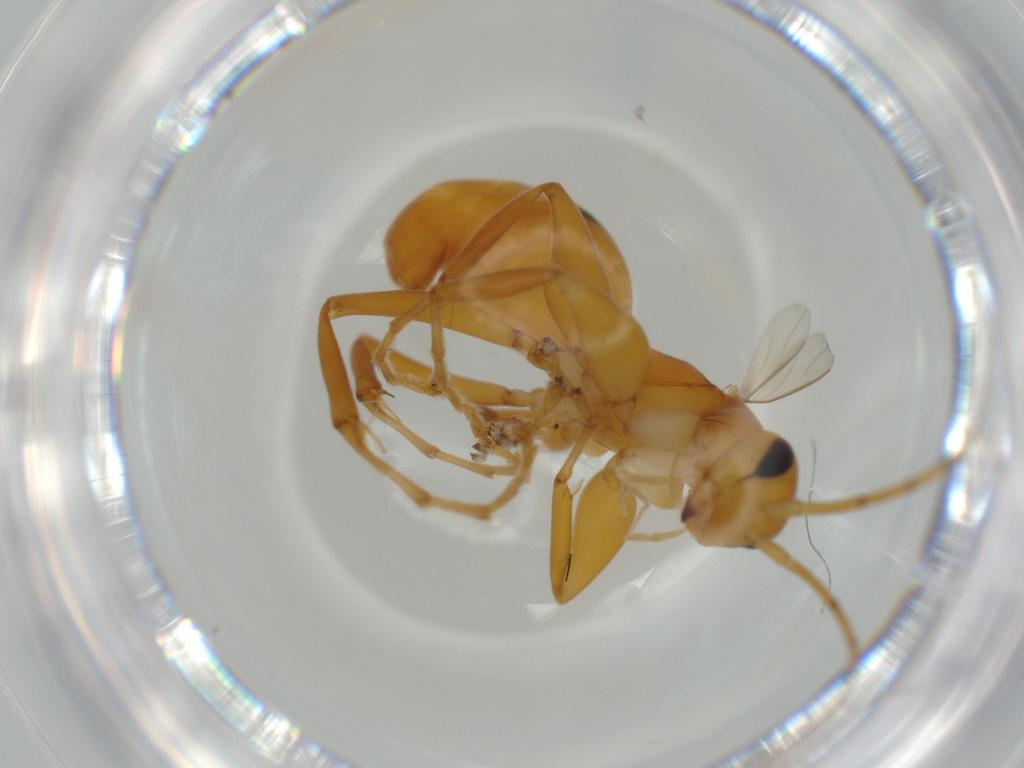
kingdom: Animalia
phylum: Arthropoda
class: Insecta
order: Hymenoptera
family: Rhopalosomatidae
